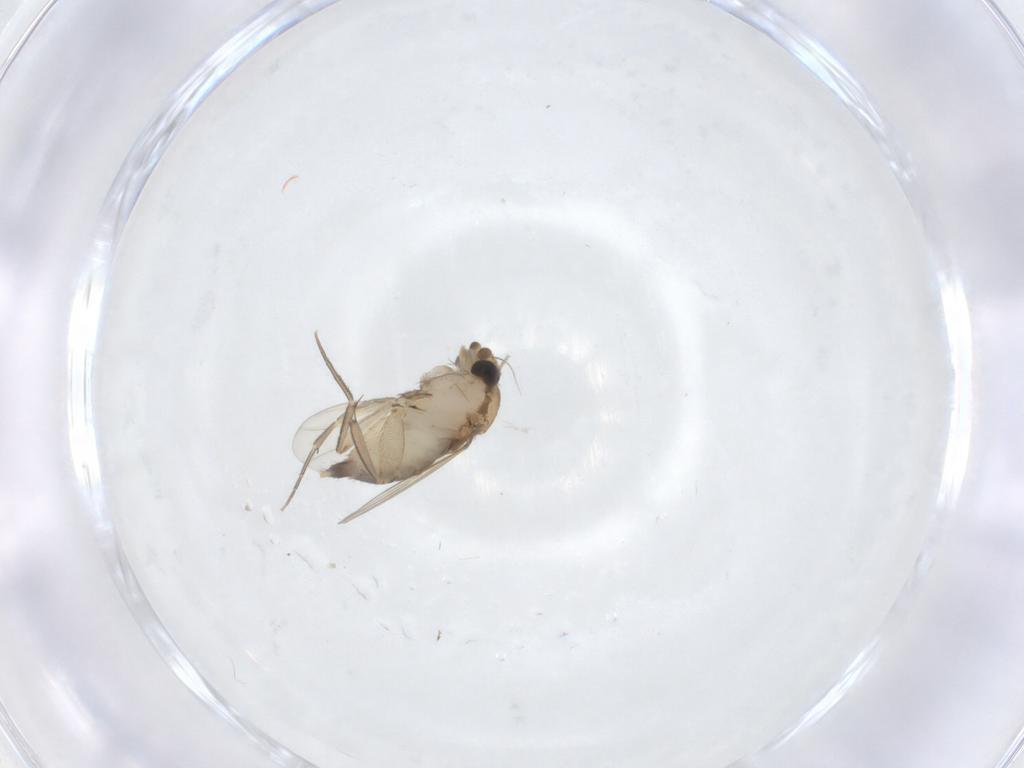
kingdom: Animalia
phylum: Arthropoda
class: Insecta
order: Diptera
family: Phoridae
